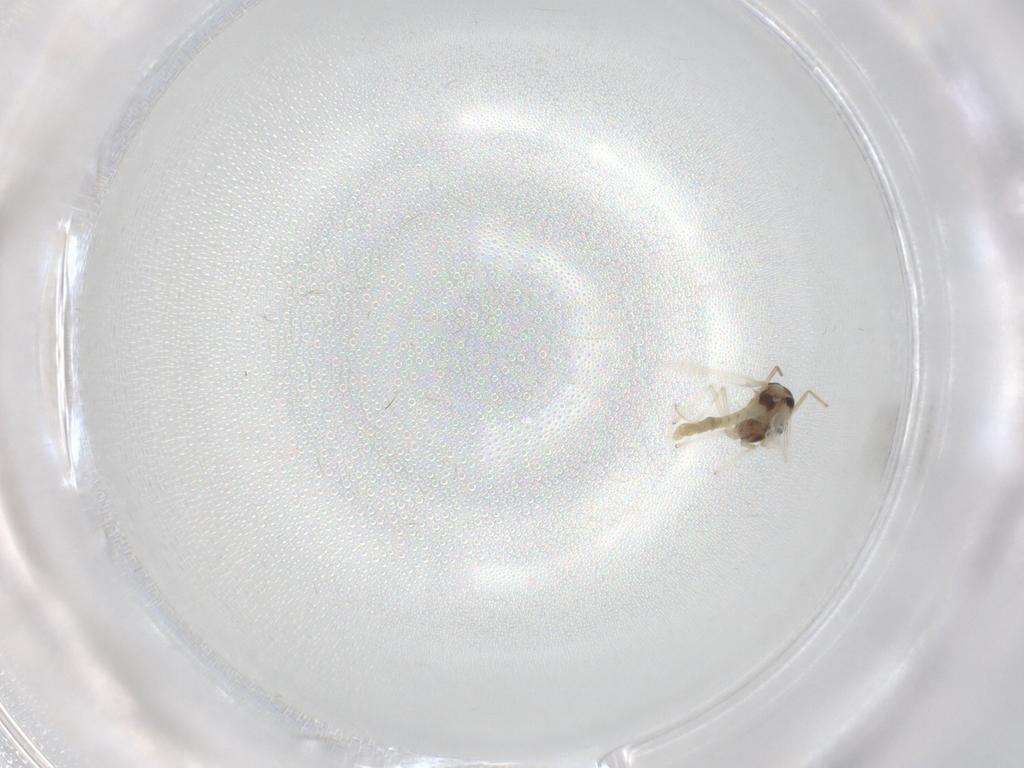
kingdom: Animalia
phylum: Arthropoda
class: Insecta
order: Diptera
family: Chironomidae
